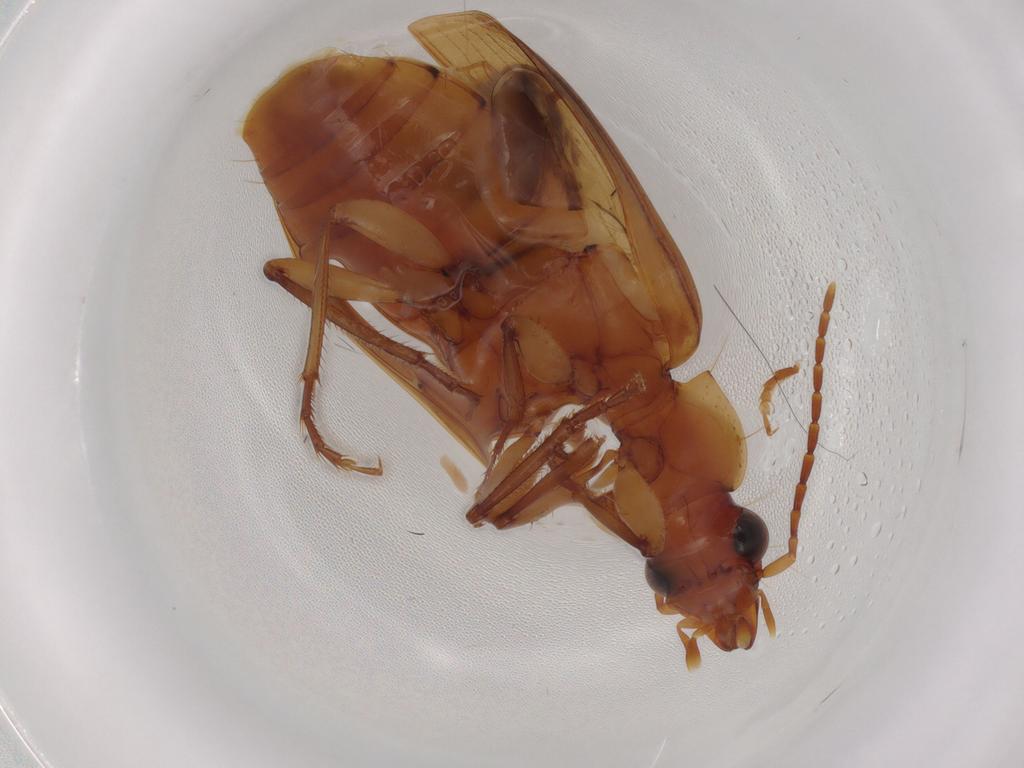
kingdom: Animalia
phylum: Arthropoda
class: Insecta
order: Coleoptera
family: Carabidae
